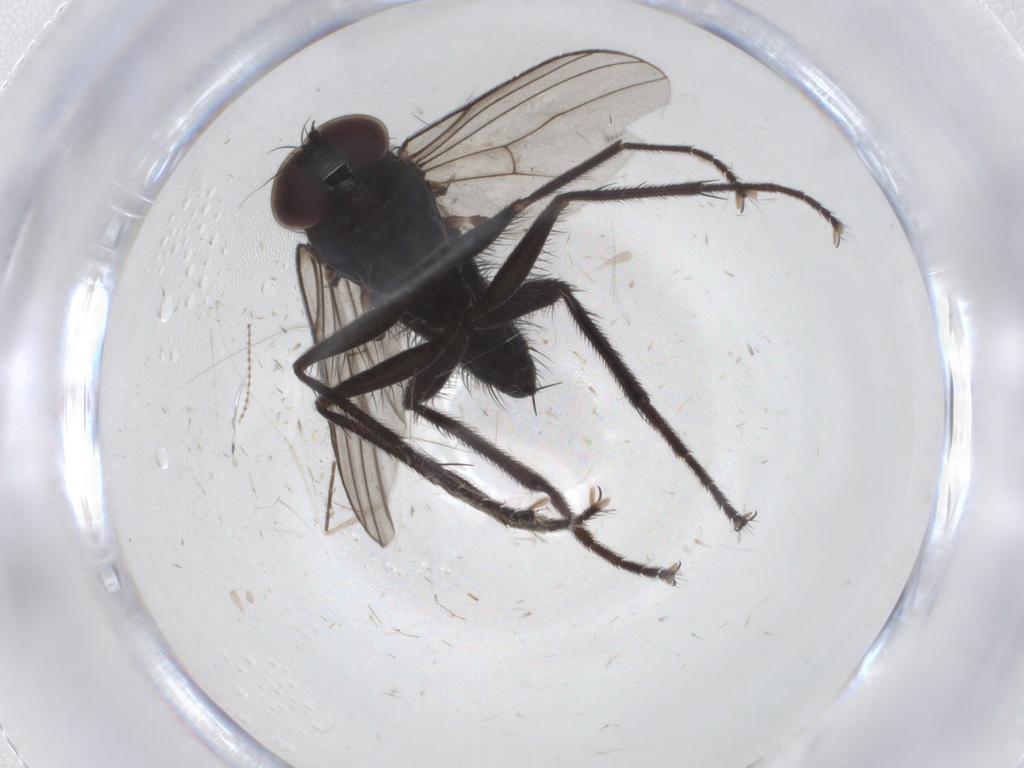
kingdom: Animalia
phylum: Arthropoda
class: Insecta
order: Diptera
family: Dolichopodidae
